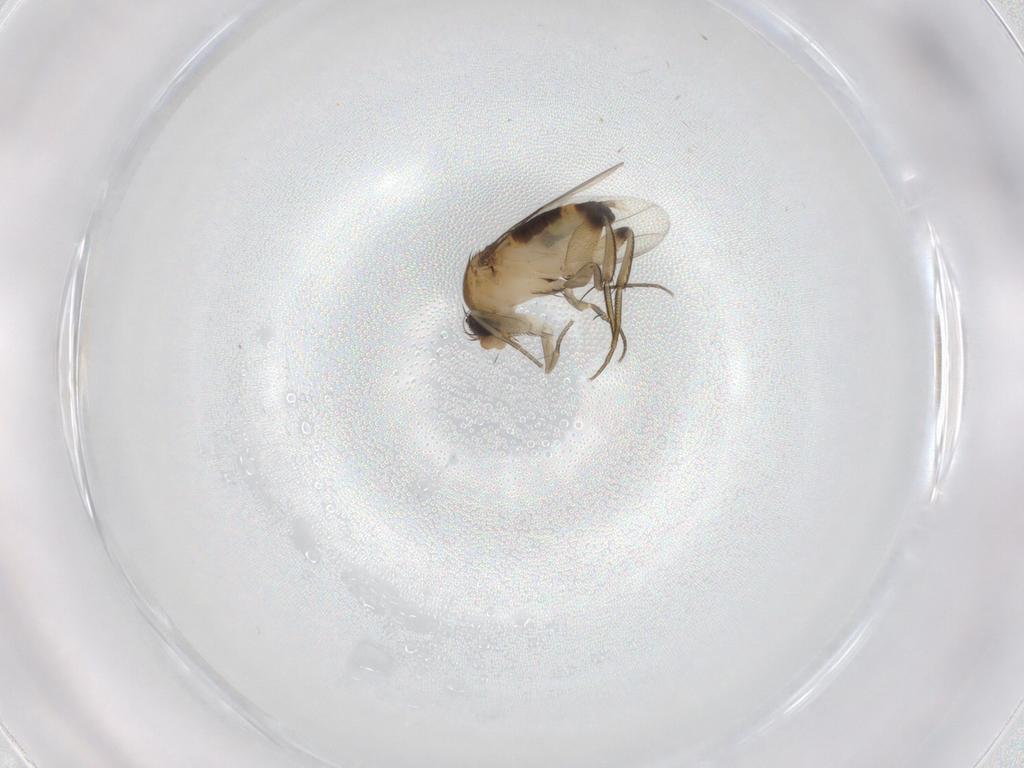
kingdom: Animalia
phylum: Arthropoda
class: Insecta
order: Diptera
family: Phoridae
